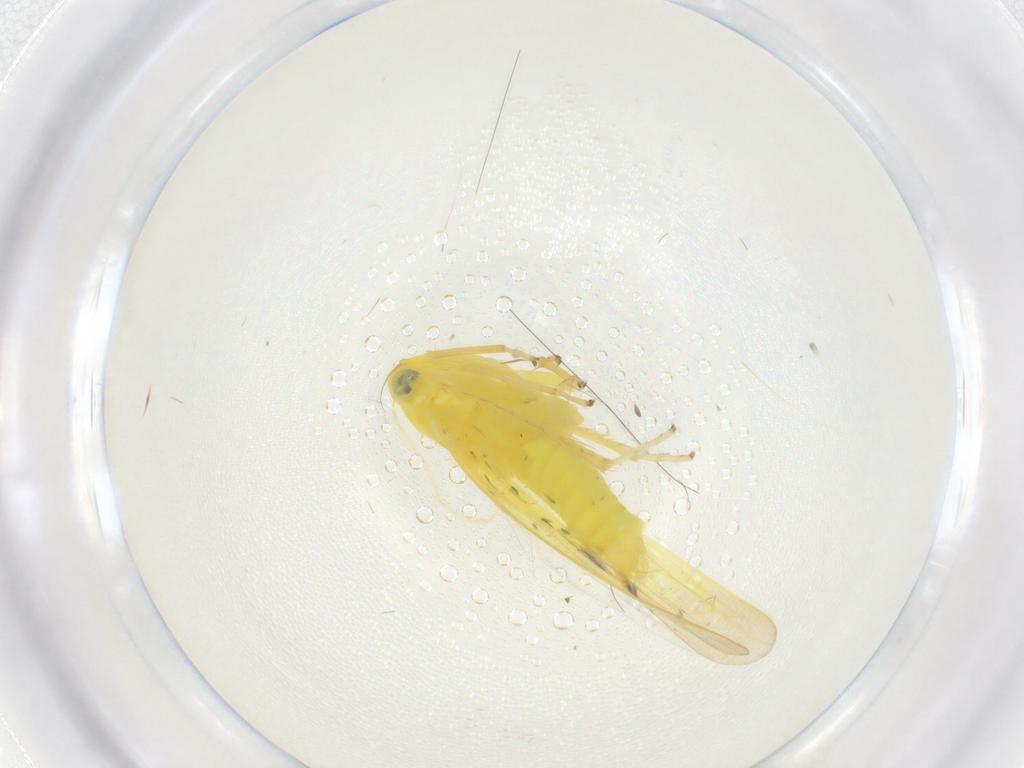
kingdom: Animalia
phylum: Arthropoda
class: Insecta
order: Hemiptera
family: Cicadellidae
